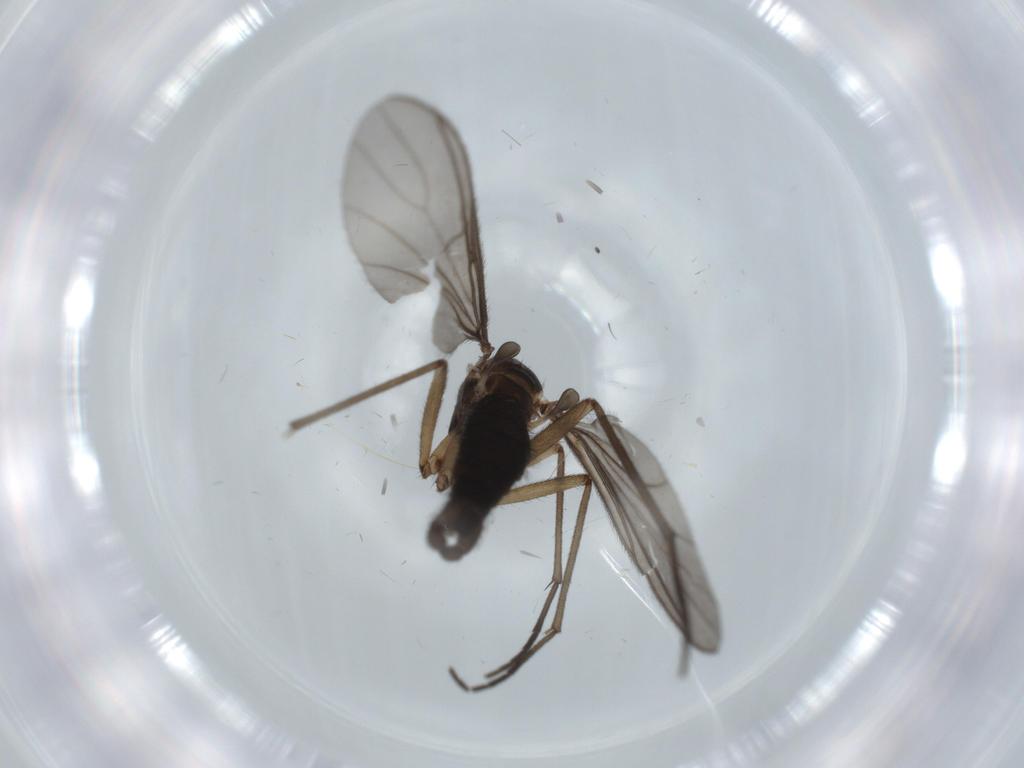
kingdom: Animalia
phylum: Arthropoda
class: Insecta
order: Diptera
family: Sciaridae
